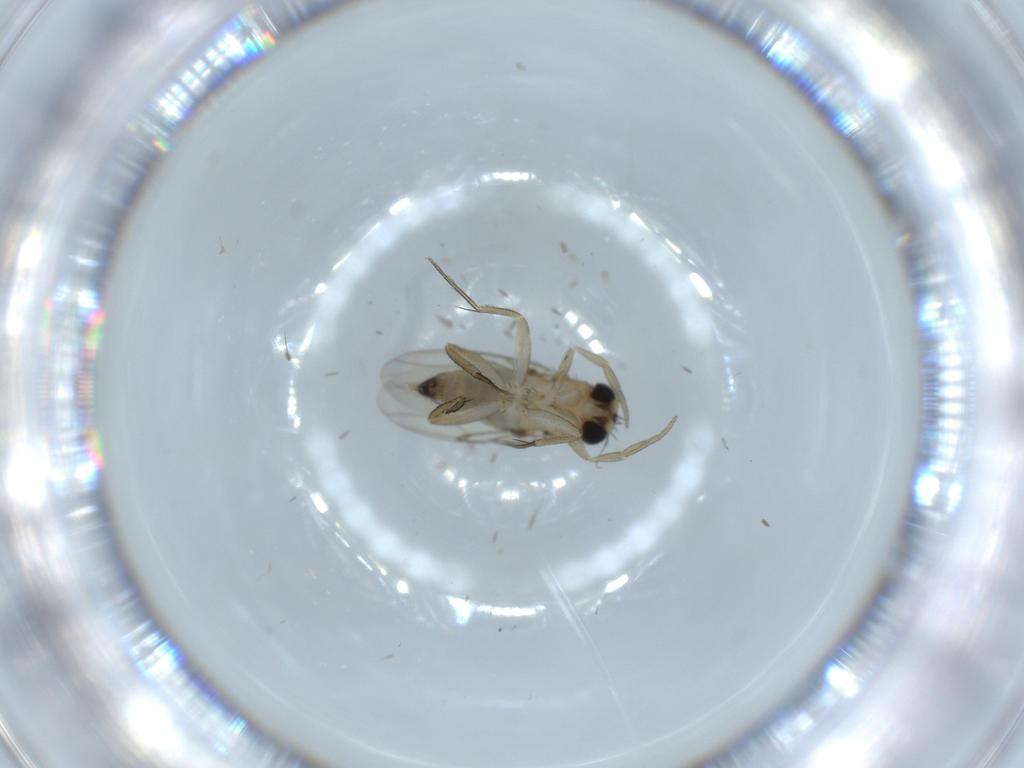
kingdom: Animalia
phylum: Arthropoda
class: Insecta
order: Diptera
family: Phoridae
